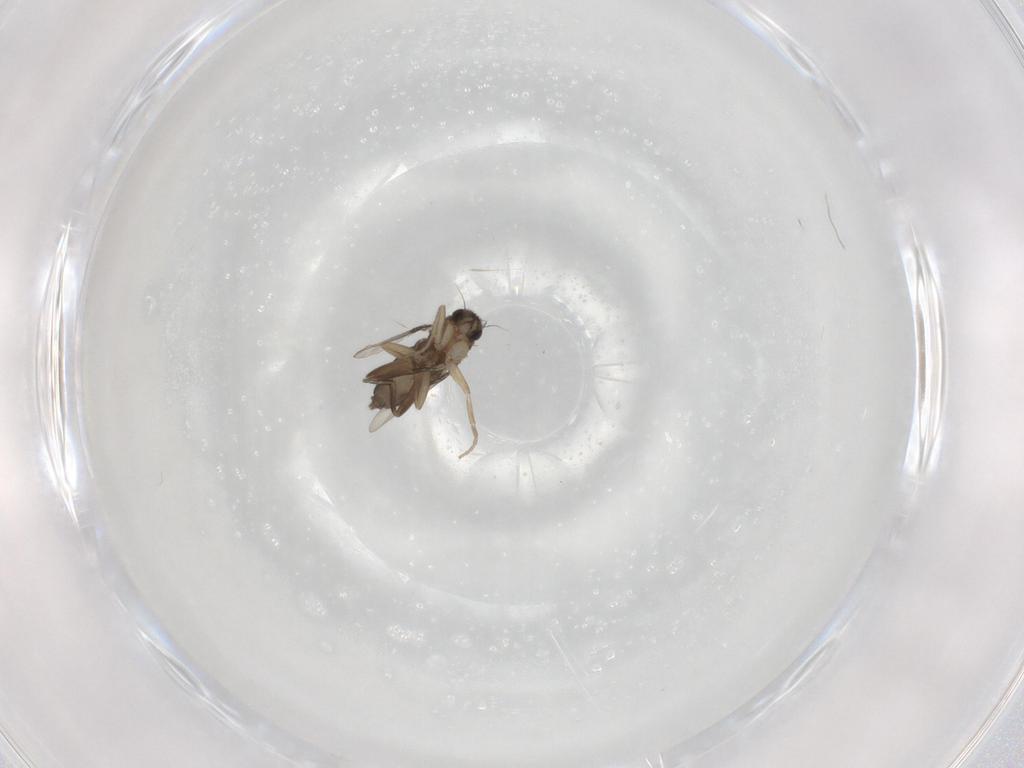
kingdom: Animalia
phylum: Arthropoda
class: Insecta
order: Diptera
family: Phoridae
